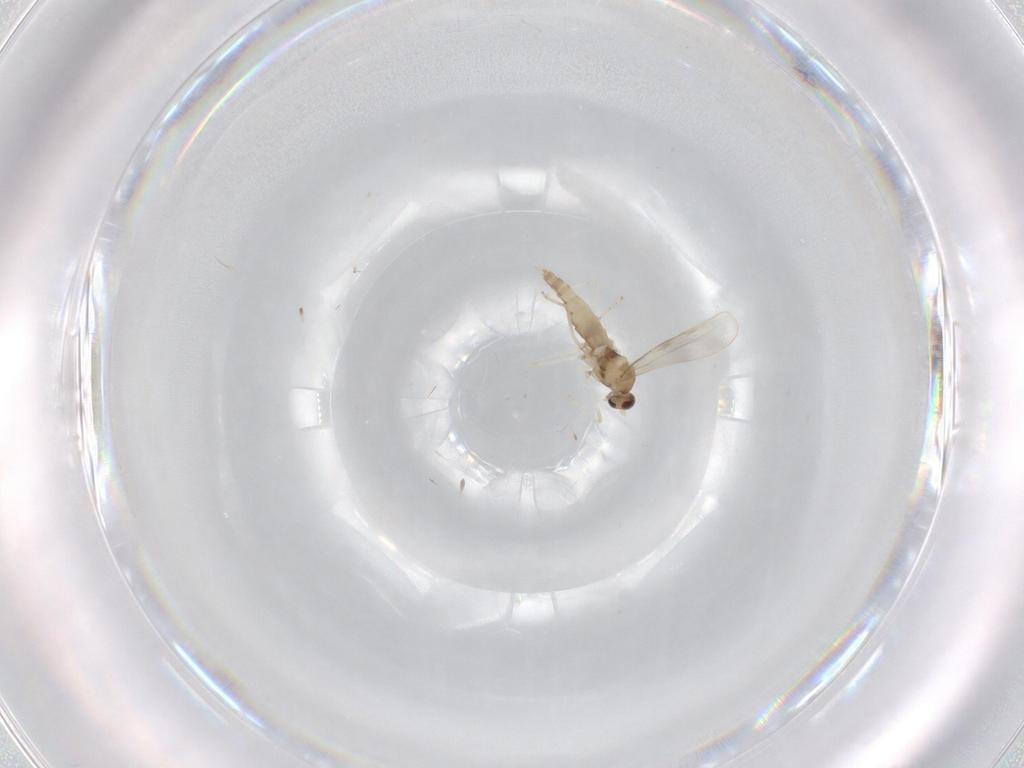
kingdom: Animalia
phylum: Arthropoda
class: Insecta
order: Diptera
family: Cecidomyiidae
